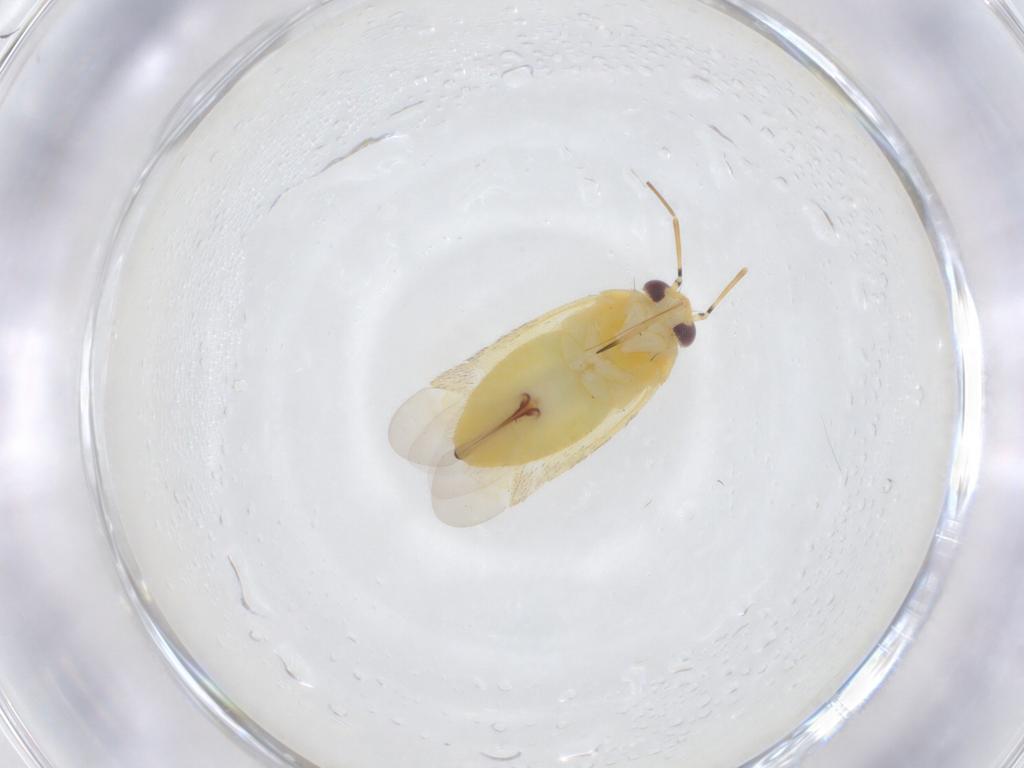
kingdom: Animalia
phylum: Arthropoda
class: Insecta
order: Hemiptera
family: Miridae
